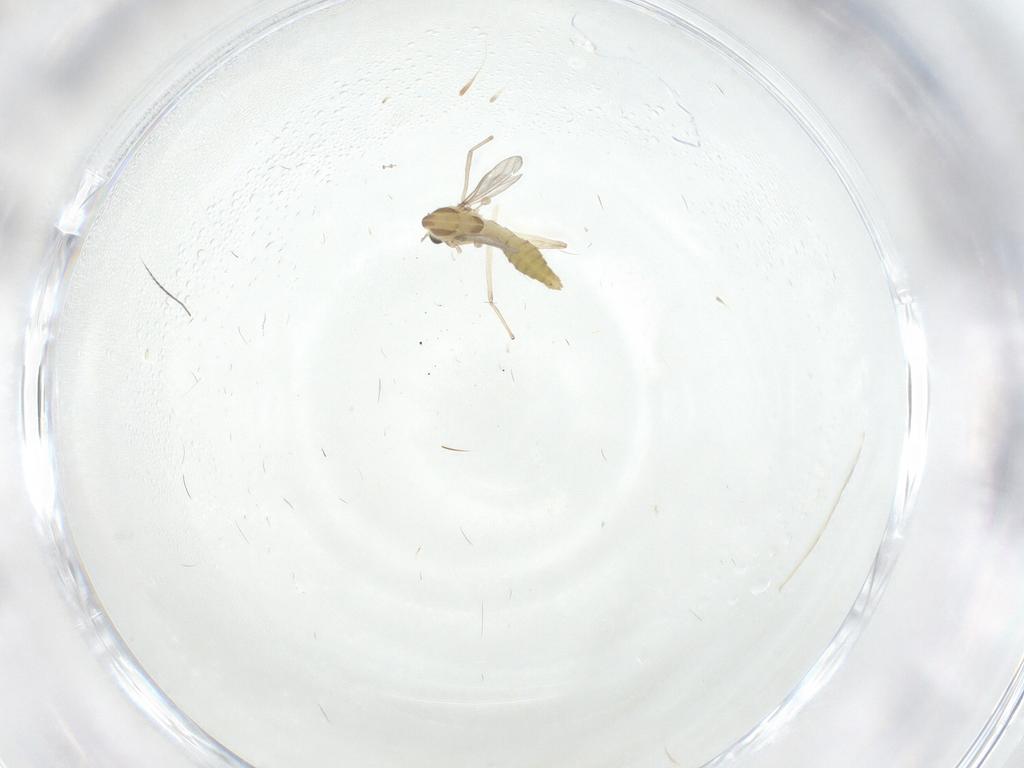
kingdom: Animalia
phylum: Arthropoda
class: Insecta
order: Diptera
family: Chironomidae
